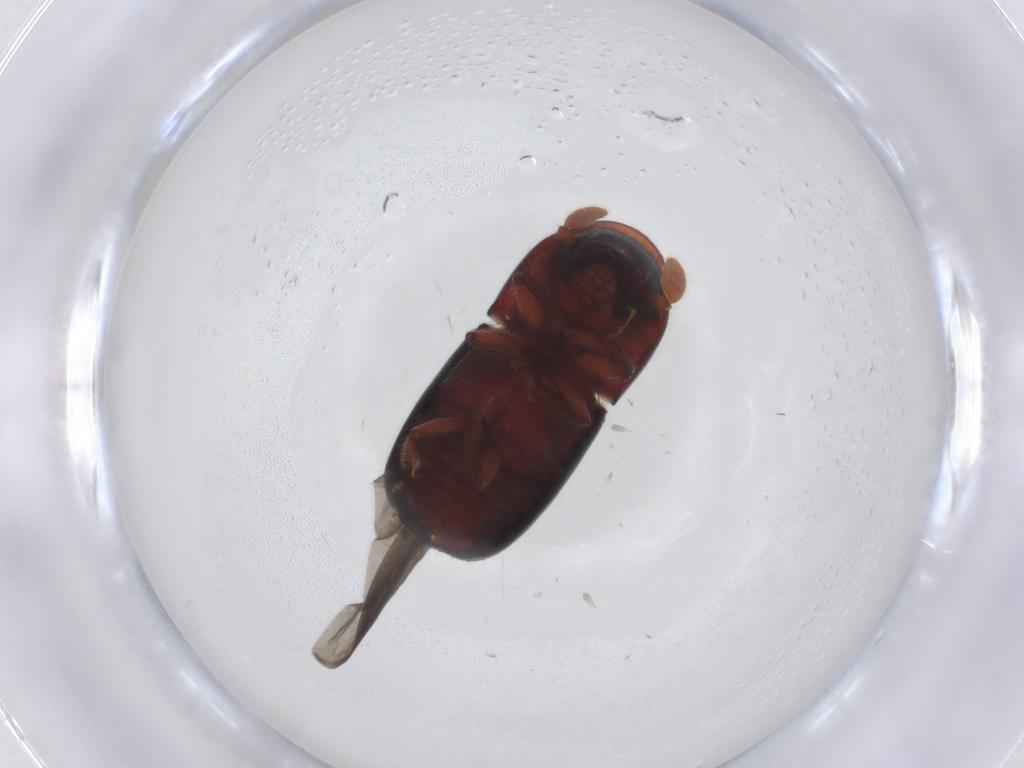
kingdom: Animalia
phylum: Arthropoda
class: Insecta
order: Coleoptera
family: Curculionidae
